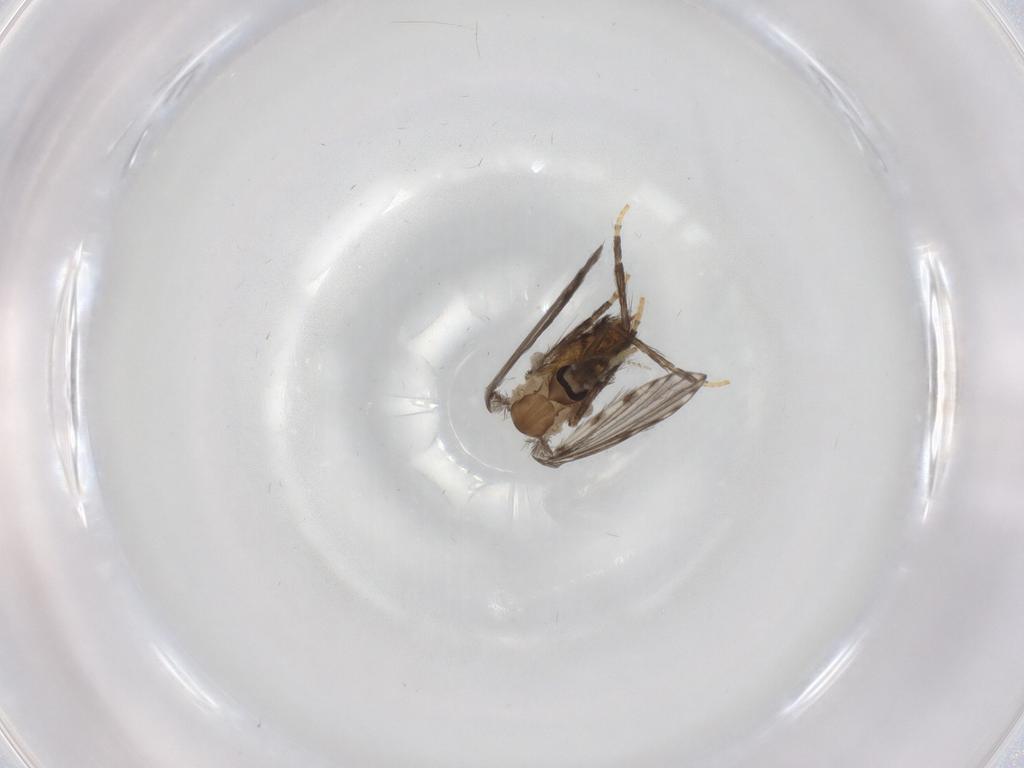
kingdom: Animalia
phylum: Arthropoda
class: Insecta
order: Diptera
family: Psychodidae
